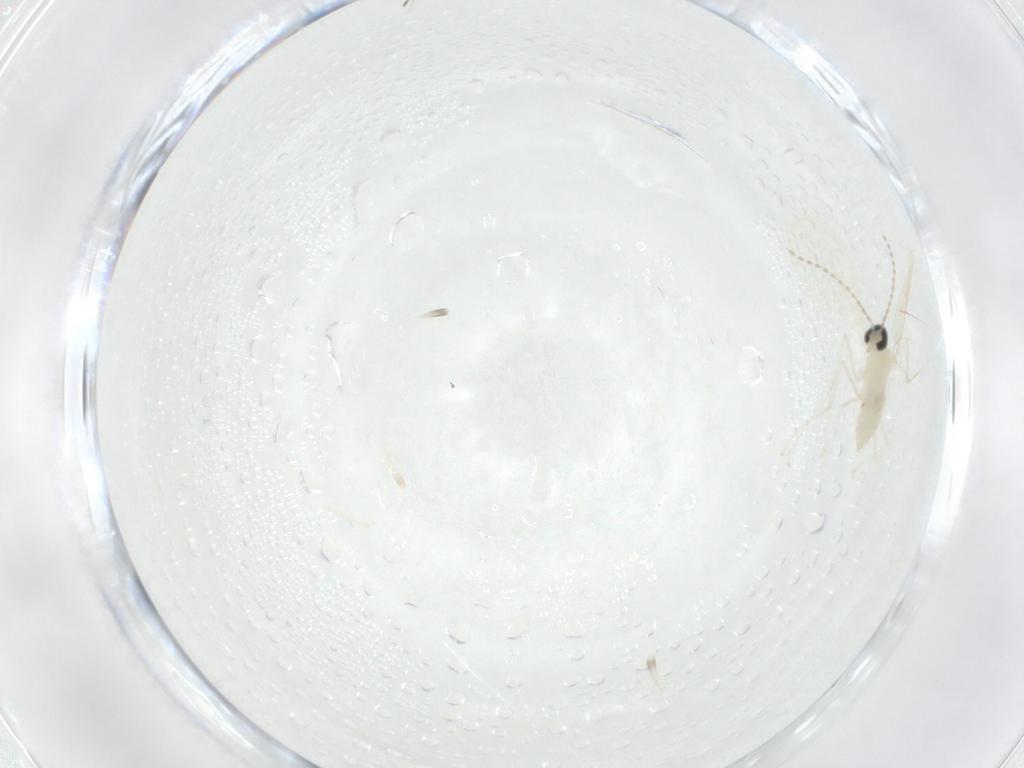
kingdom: Animalia
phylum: Arthropoda
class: Insecta
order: Diptera
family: Cecidomyiidae
